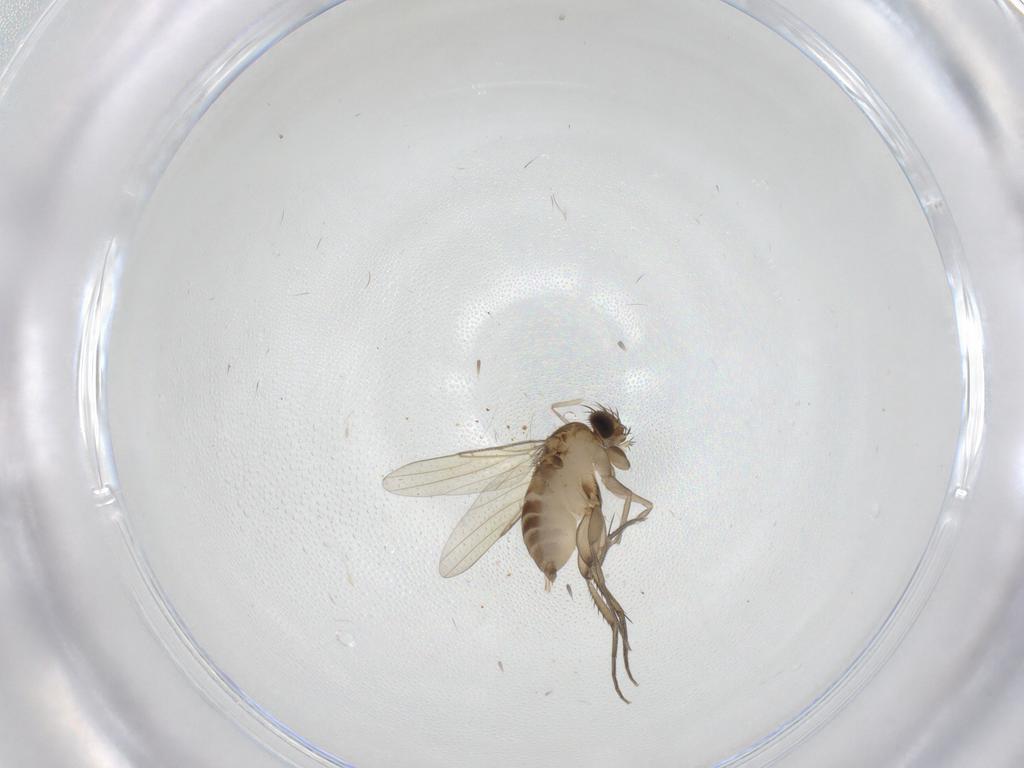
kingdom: Animalia
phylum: Arthropoda
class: Insecta
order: Diptera
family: Phoridae
